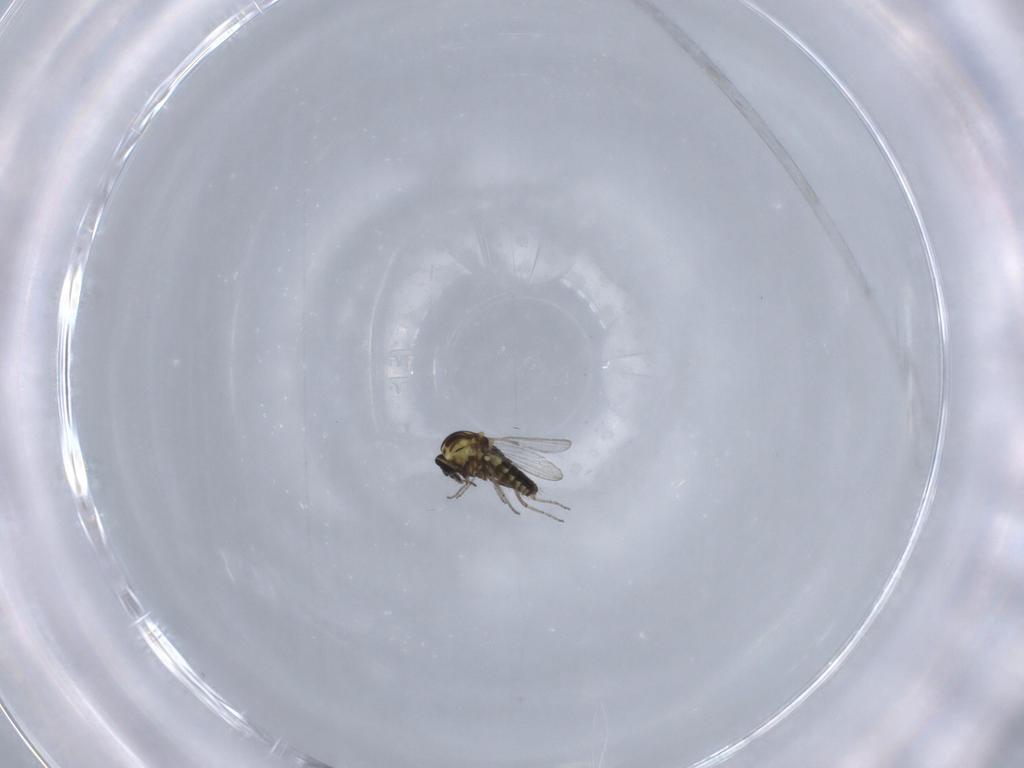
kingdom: Animalia
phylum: Arthropoda
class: Insecta
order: Diptera
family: Ceratopogonidae
